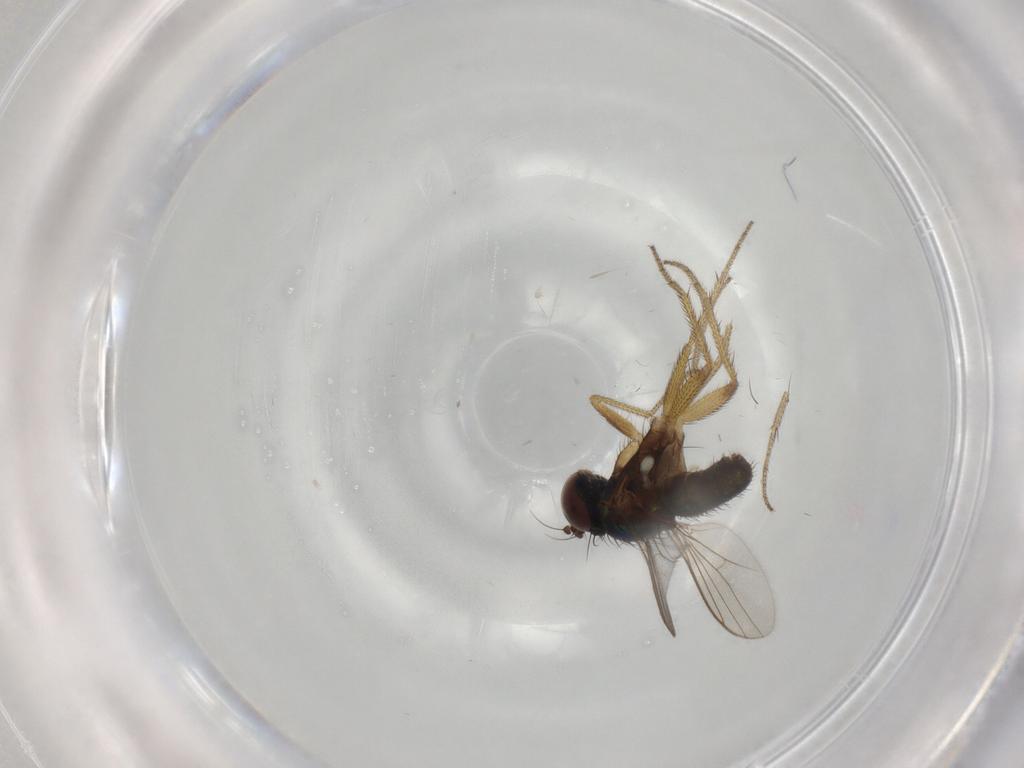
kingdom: Animalia
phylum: Arthropoda
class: Insecta
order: Diptera
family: Dolichopodidae
